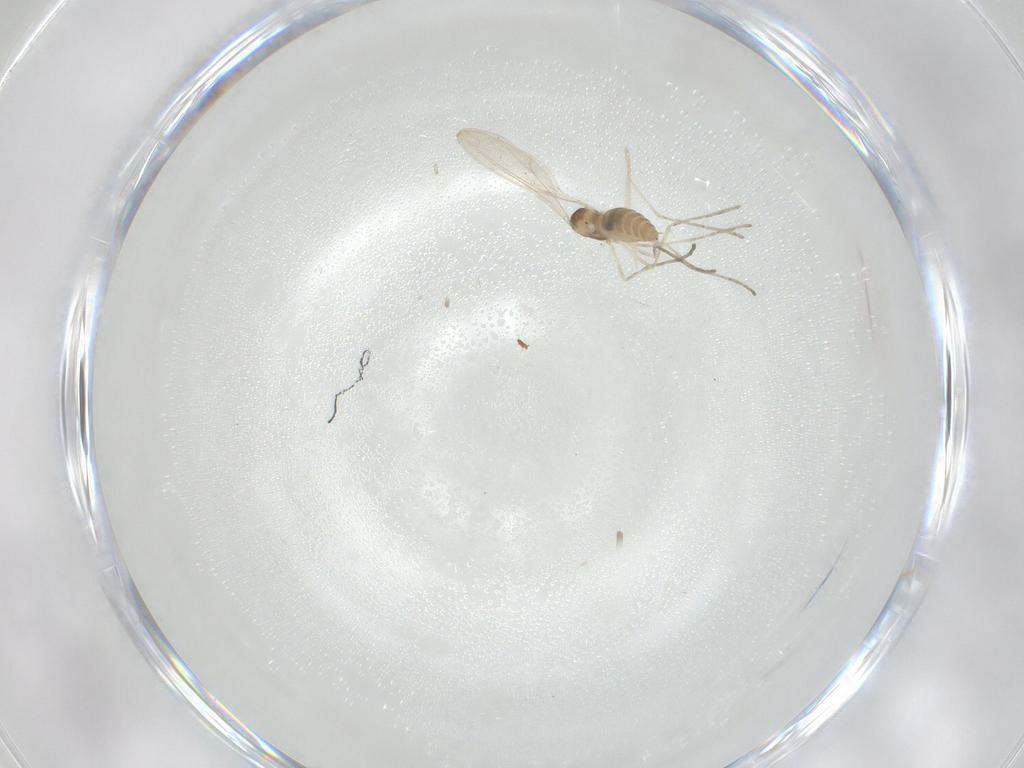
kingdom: Animalia
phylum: Arthropoda
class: Insecta
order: Diptera
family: Cecidomyiidae
